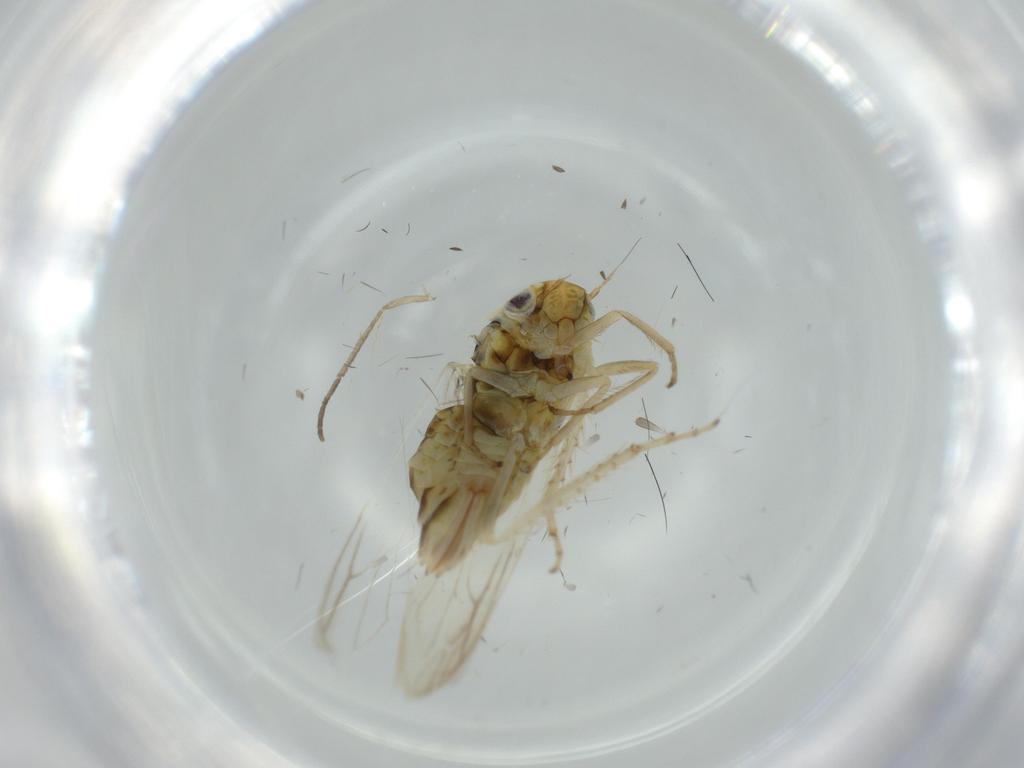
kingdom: Animalia
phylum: Arthropoda
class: Insecta
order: Hemiptera
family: Cicadellidae
